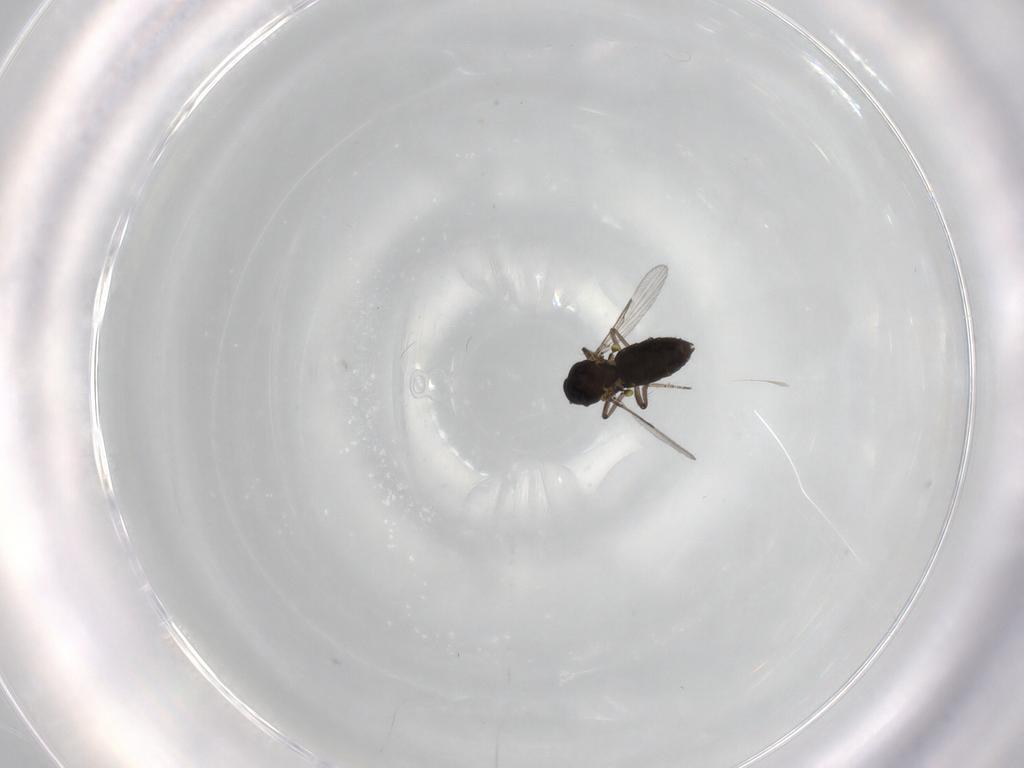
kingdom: Animalia
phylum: Arthropoda
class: Insecta
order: Diptera
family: Ceratopogonidae
